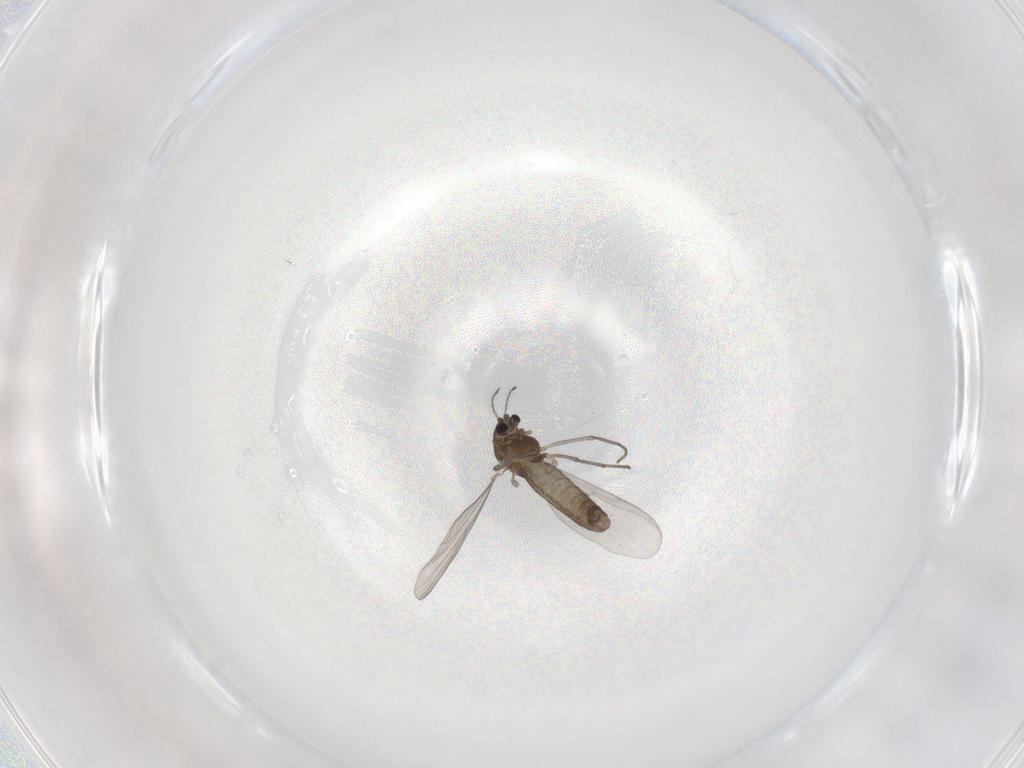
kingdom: Animalia
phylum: Arthropoda
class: Insecta
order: Diptera
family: Chironomidae
